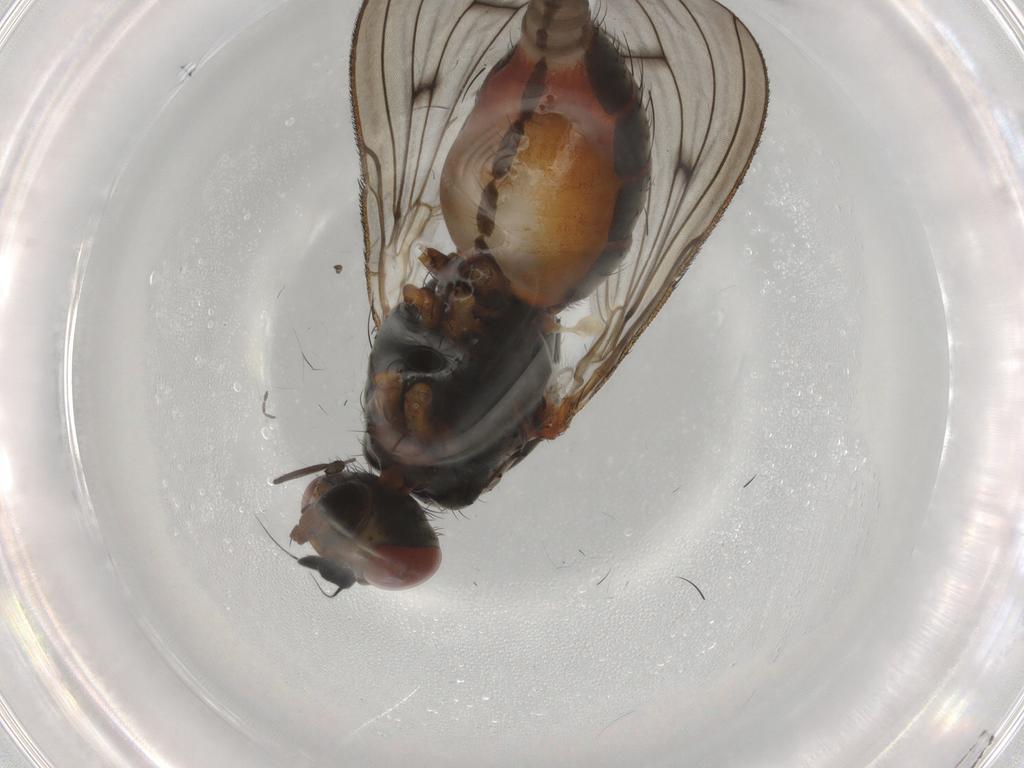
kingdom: Animalia
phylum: Arthropoda
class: Insecta
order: Diptera
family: Anthomyiidae
